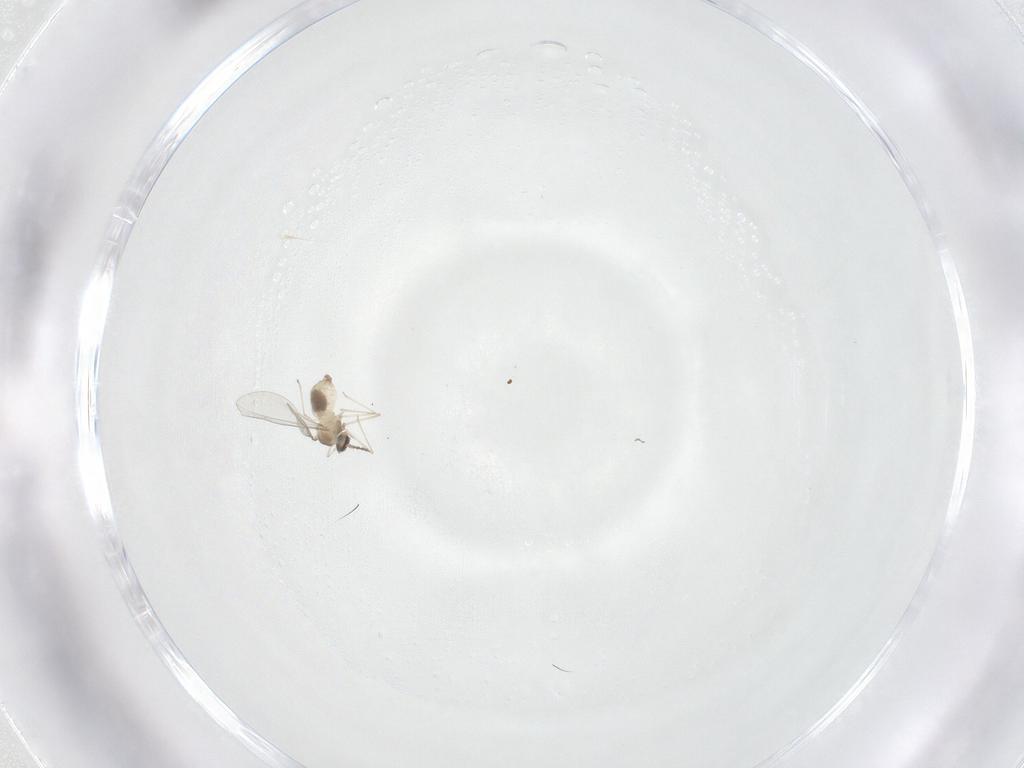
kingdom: Animalia
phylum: Arthropoda
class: Insecta
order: Diptera
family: Cecidomyiidae
